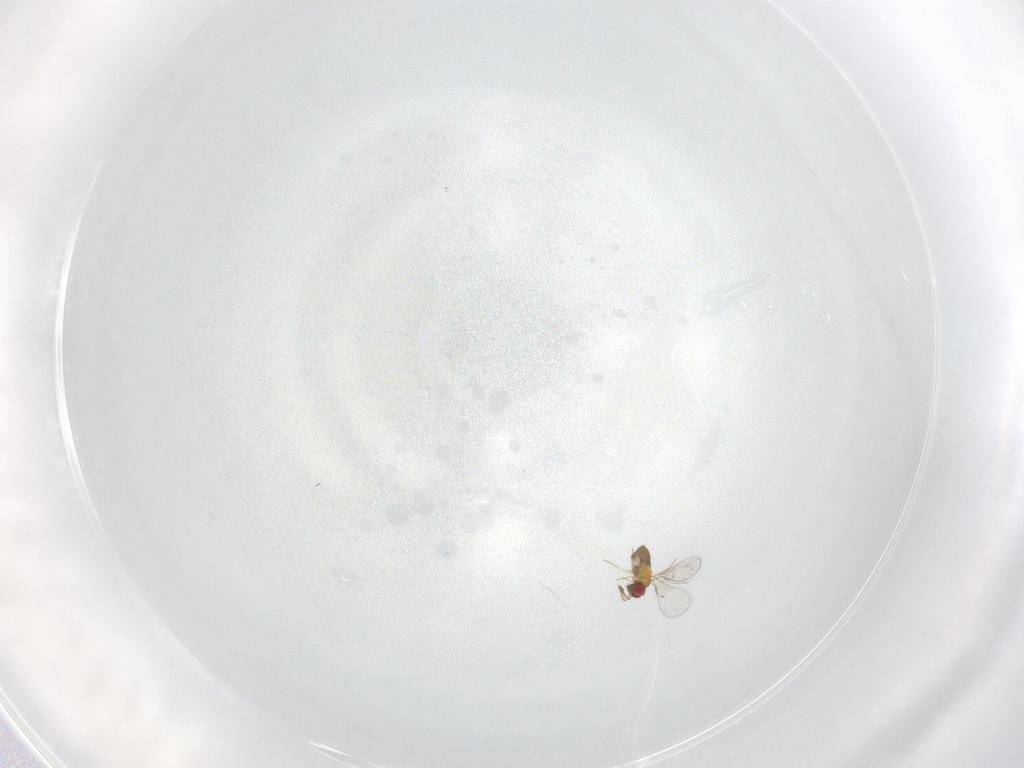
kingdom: Animalia
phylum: Arthropoda
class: Insecta
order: Hymenoptera
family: Trichogrammatidae
